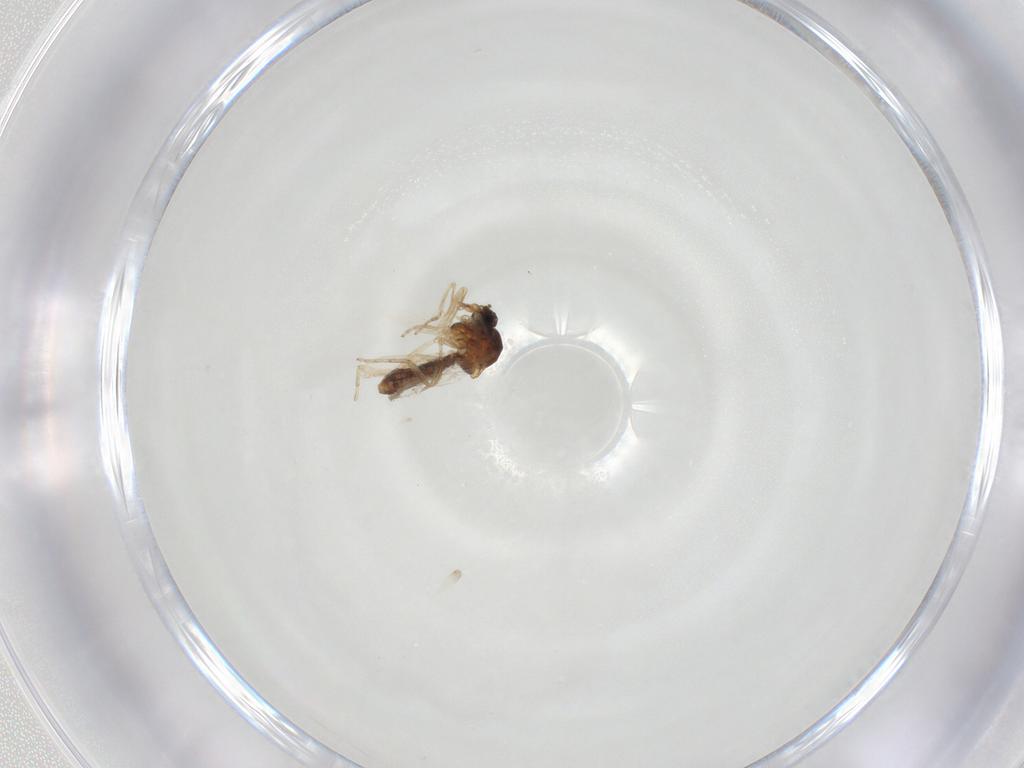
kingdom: Animalia
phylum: Arthropoda
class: Insecta
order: Diptera
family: Ceratopogonidae
